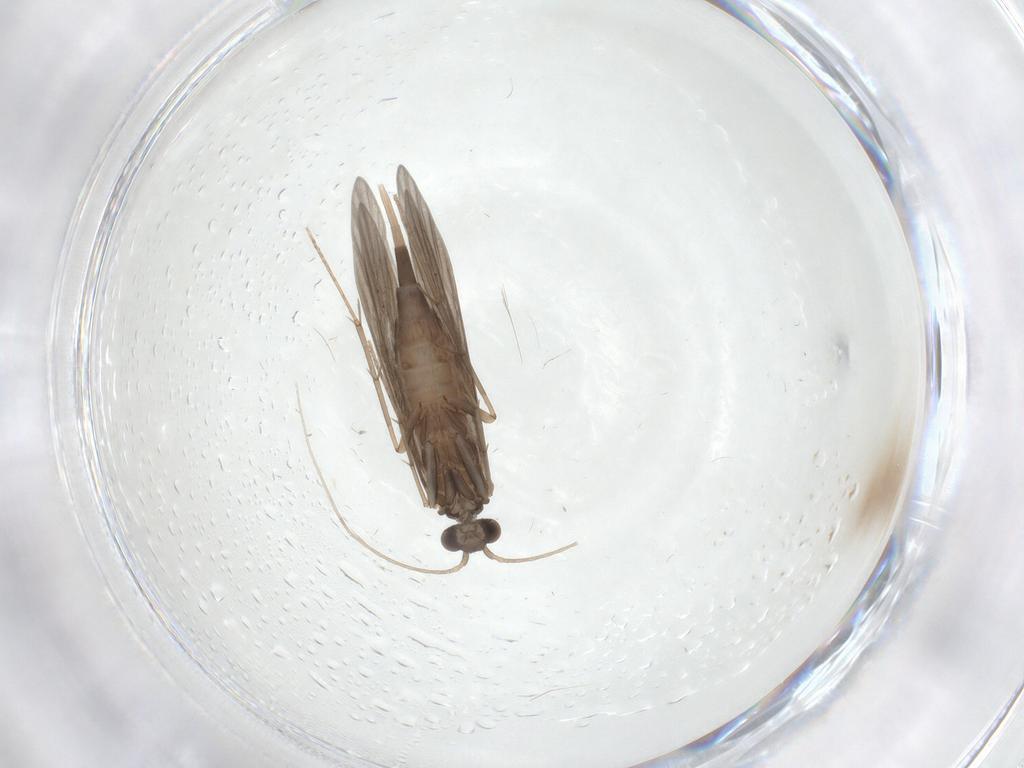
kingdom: Animalia
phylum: Arthropoda
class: Insecta
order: Trichoptera
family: Xiphocentronidae
